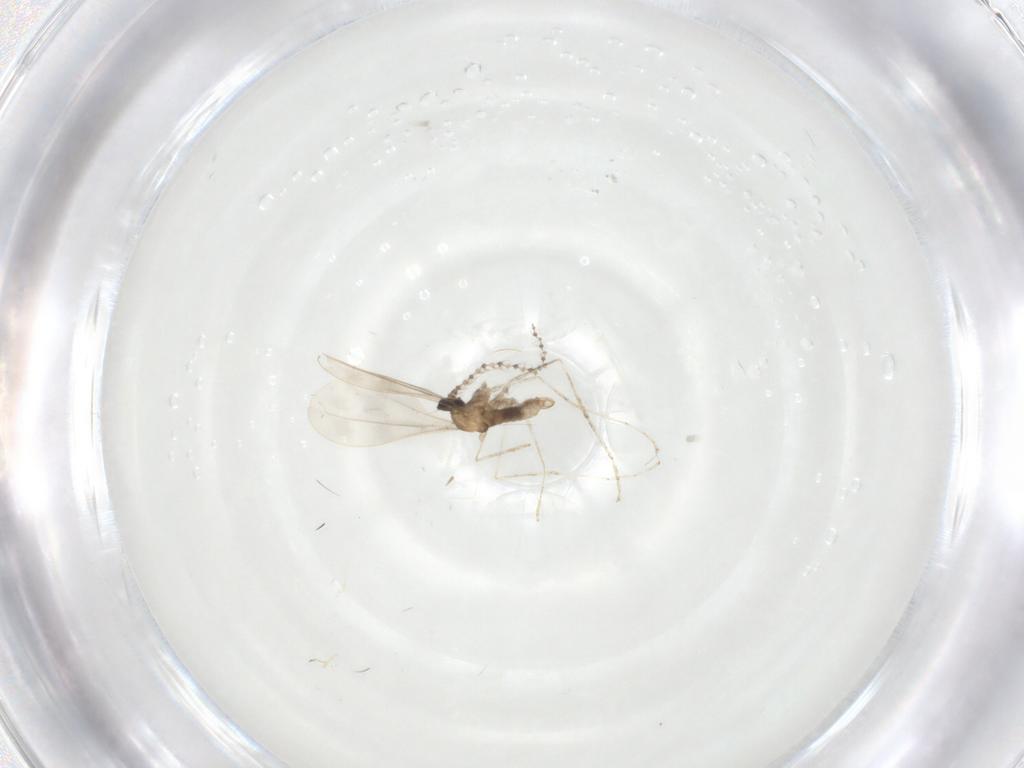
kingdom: Animalia
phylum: Arthropoda
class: Insecta
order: Diptera
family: Cecidomyiidae
